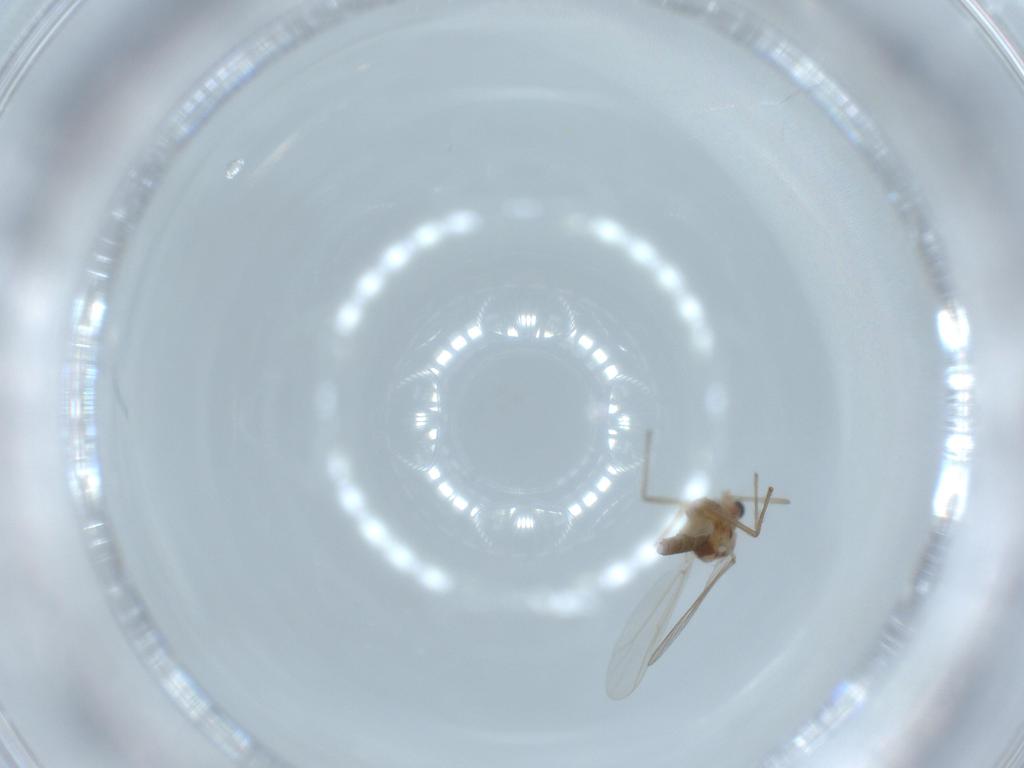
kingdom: Animalia
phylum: Arthropoda
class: Insecta
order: Diptera
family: Chironomidae
